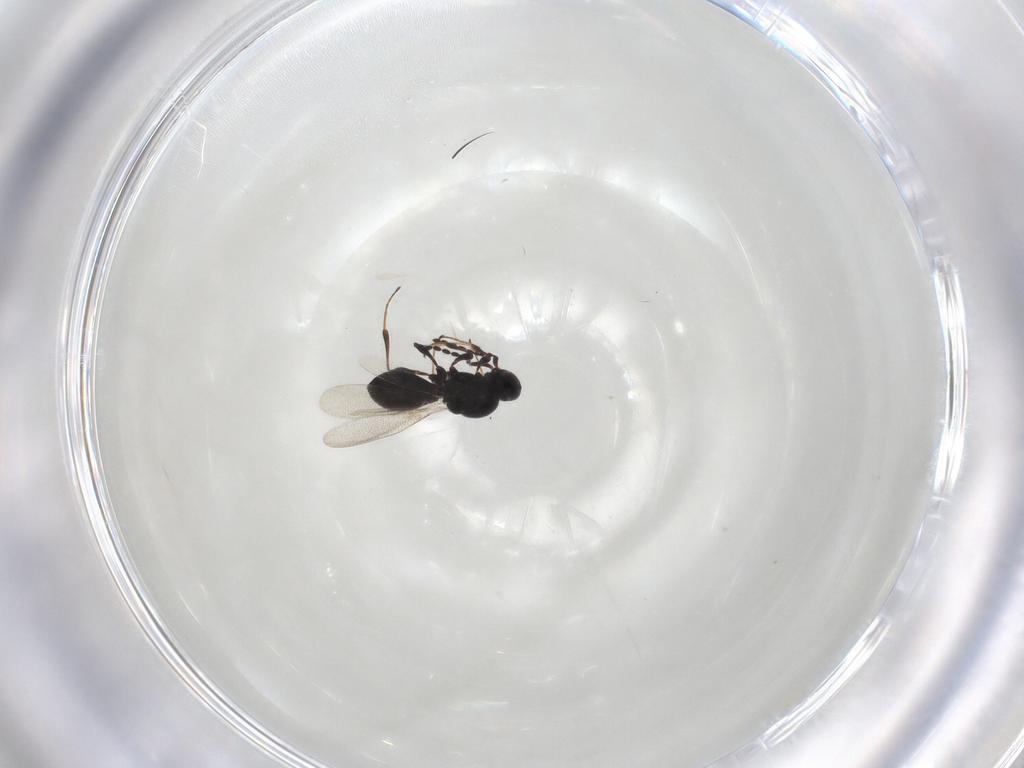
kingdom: Animalia
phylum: Arthropoda
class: Insecta
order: Hymenoptera
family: Platygastridae
